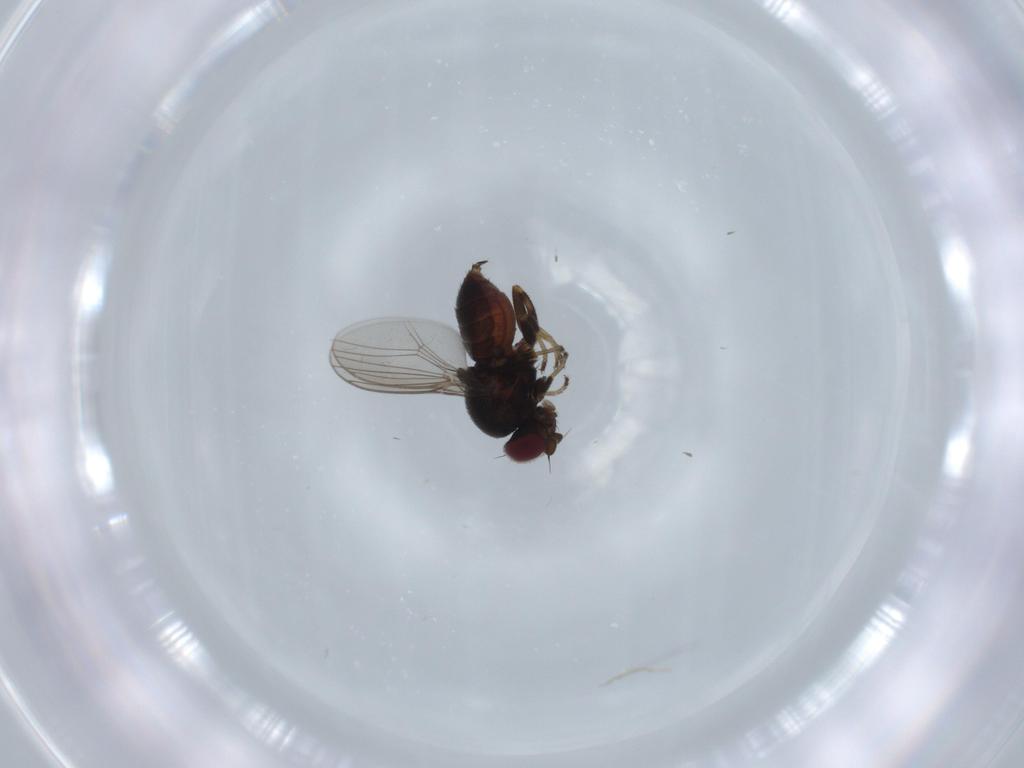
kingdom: Animalia
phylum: Arthropoda
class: Insecta
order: Diptera
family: Chloropidae
